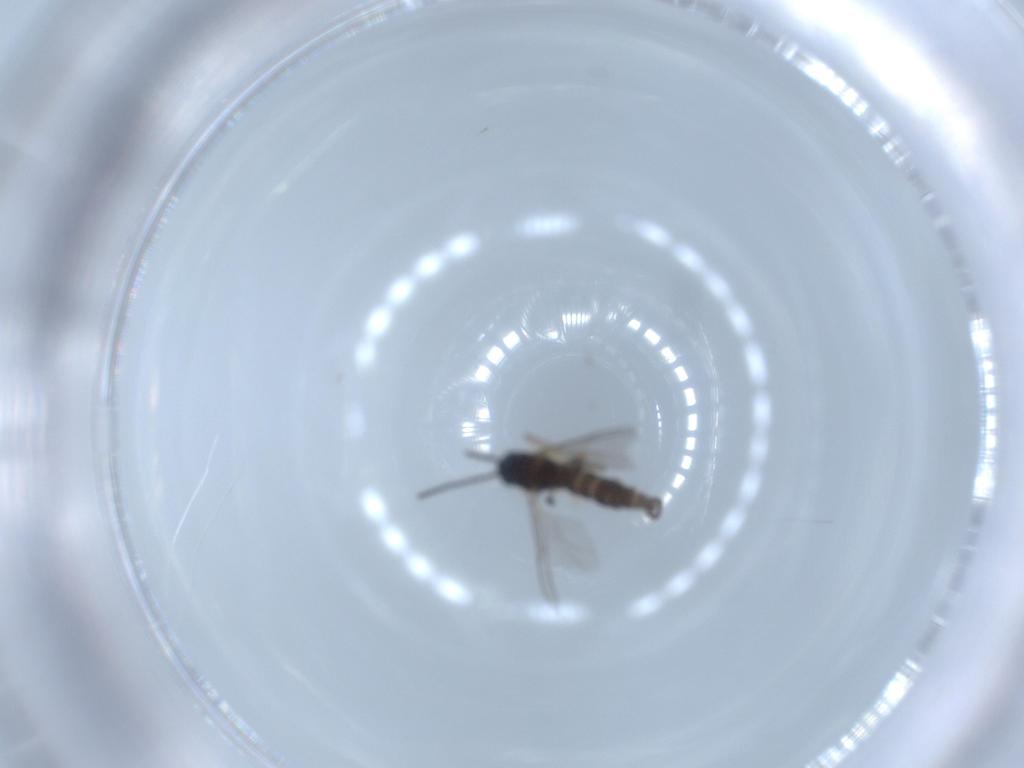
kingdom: Animalia
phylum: Arthropoda
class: Insecta
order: Diptera
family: Sciaridae
